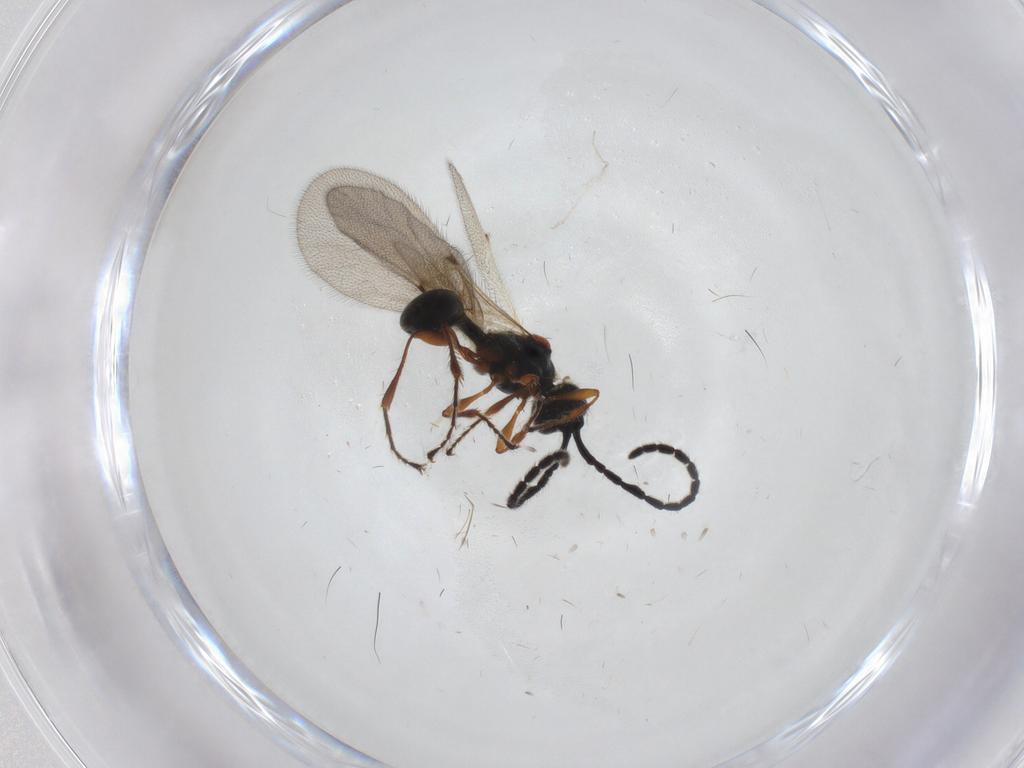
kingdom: Animalia
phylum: Arthropoda
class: Insecta
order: Hymenoptera
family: Diapriidae
